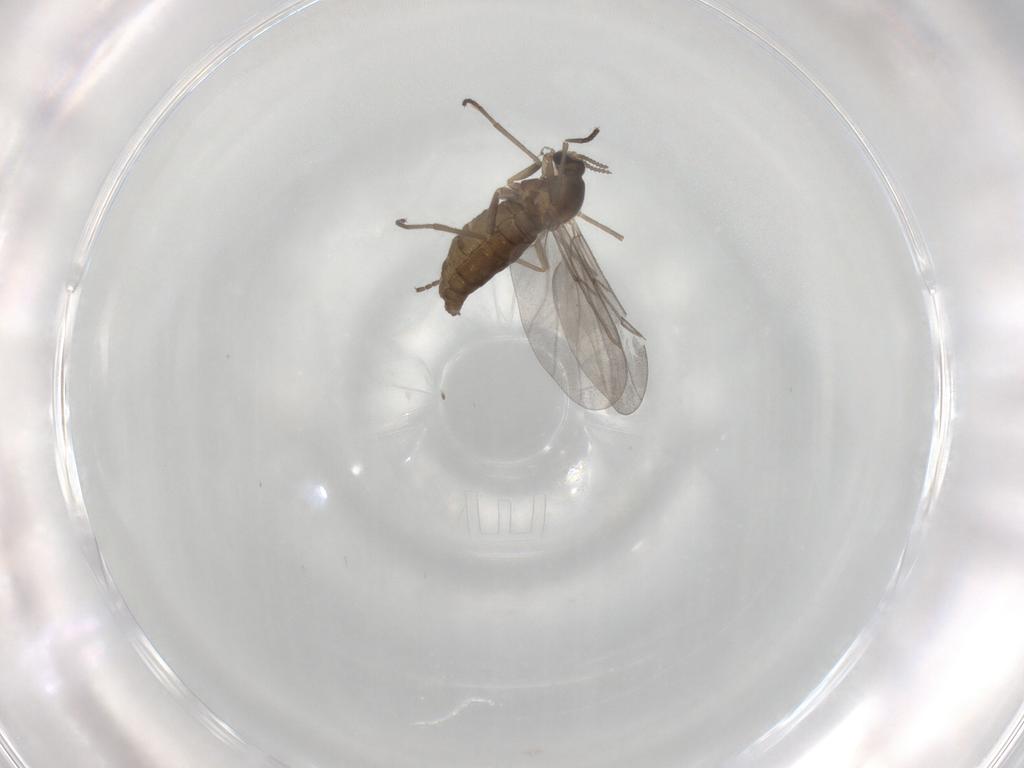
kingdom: Animalia
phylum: Arthropoda
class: Insecta
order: Diptera
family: Cecidomyiidae
